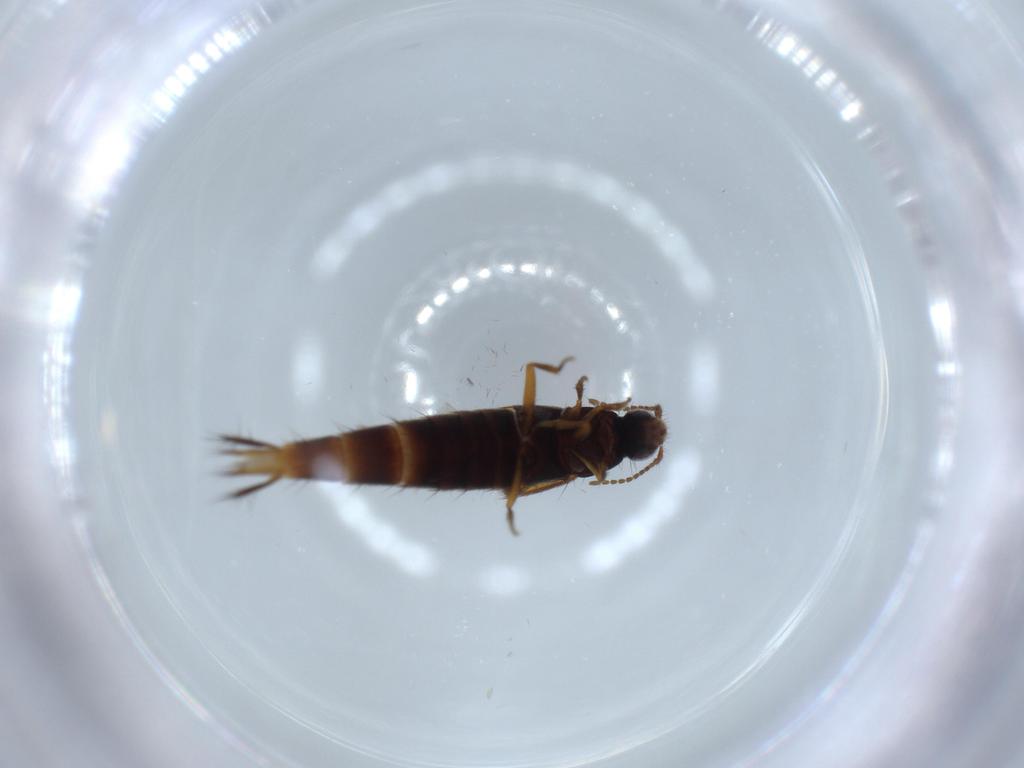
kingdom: Animalia
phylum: Arthropoda
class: Insecta
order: Coleoptera
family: Staphylinidae
